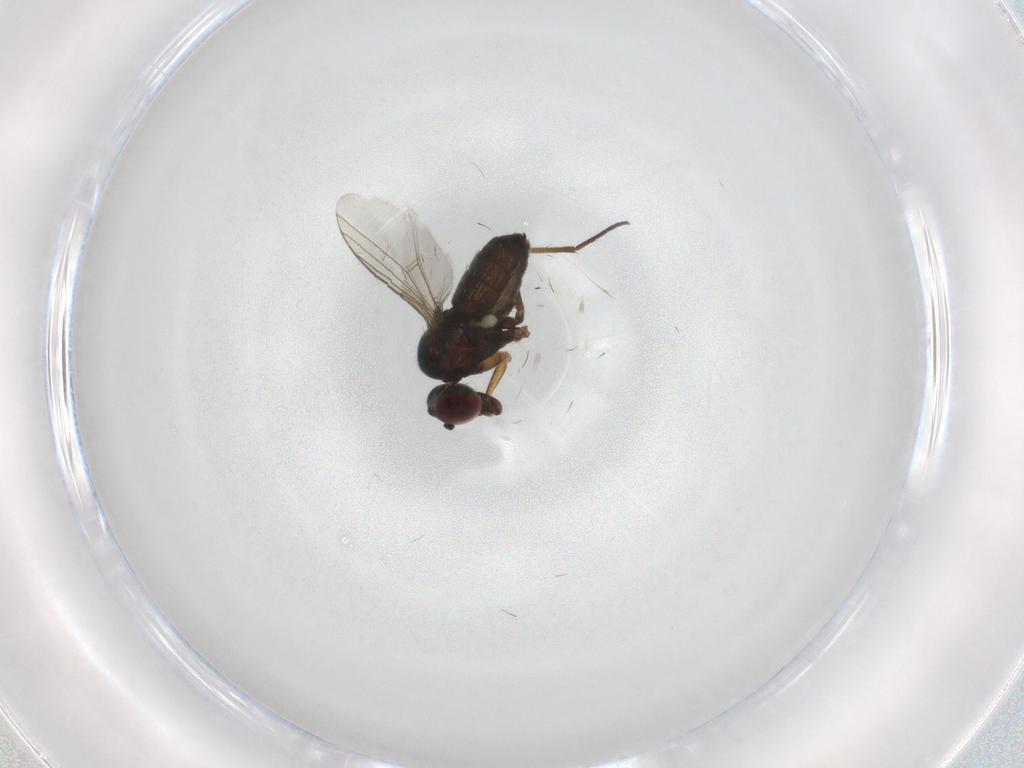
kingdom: Animalia
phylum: Arthropoda
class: Insecta
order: Diptera
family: Dolichopodidae
